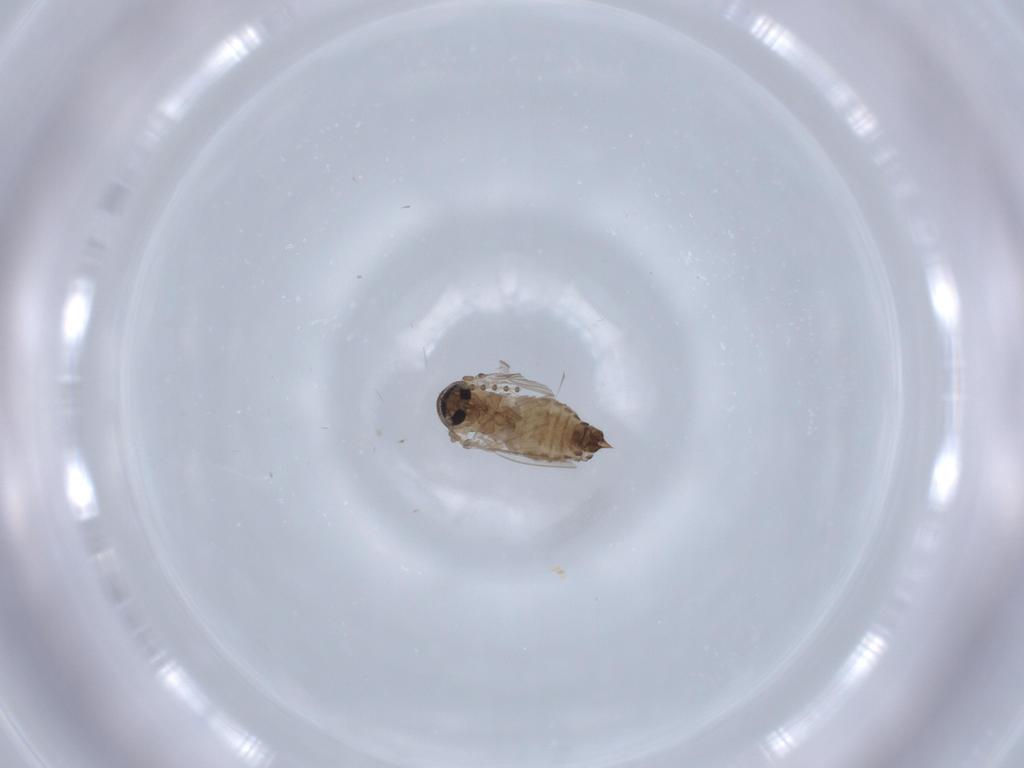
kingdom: Animalia
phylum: Arthropoda
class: Insecta
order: Diptera
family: Psychodidae
